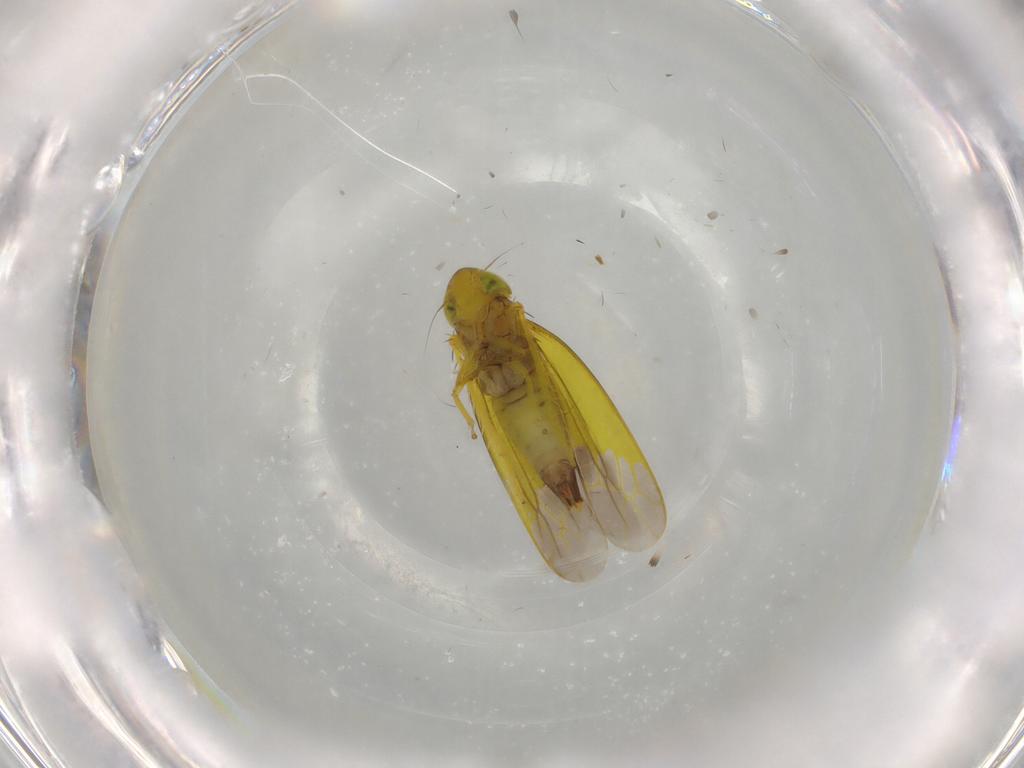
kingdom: Animalia
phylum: Arthropoda
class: Insecta
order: Hemiptera
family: Cicadellidae
